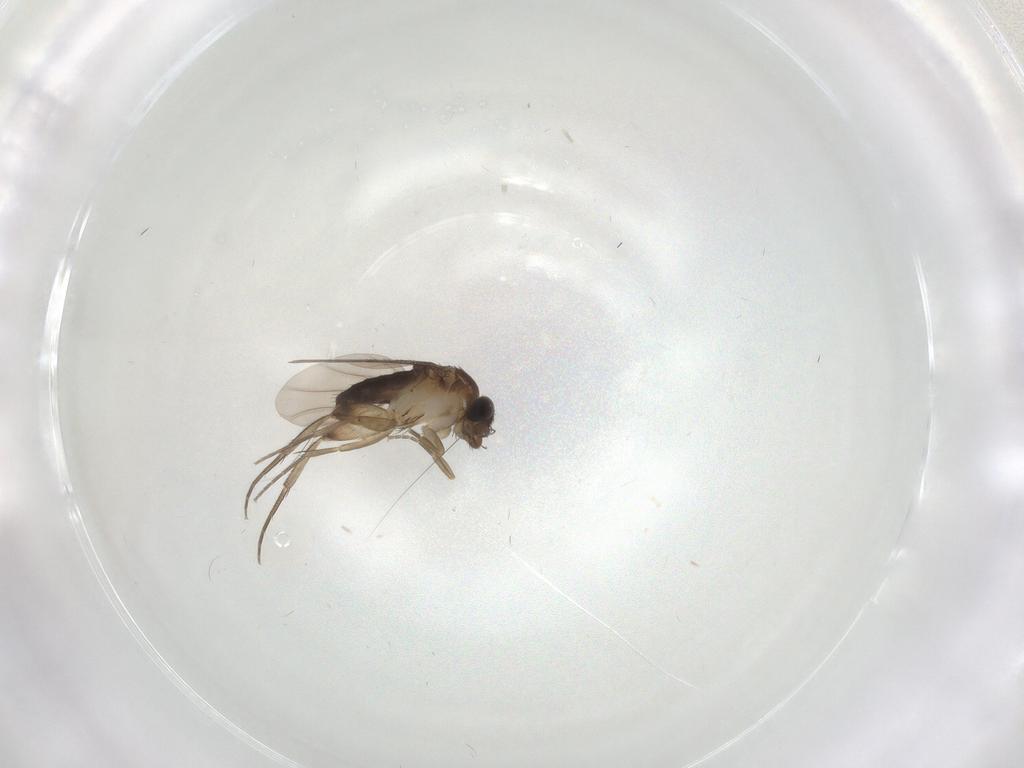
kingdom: Animalia
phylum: Arthropoda
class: Insecta
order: Diptera
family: Phoridae
